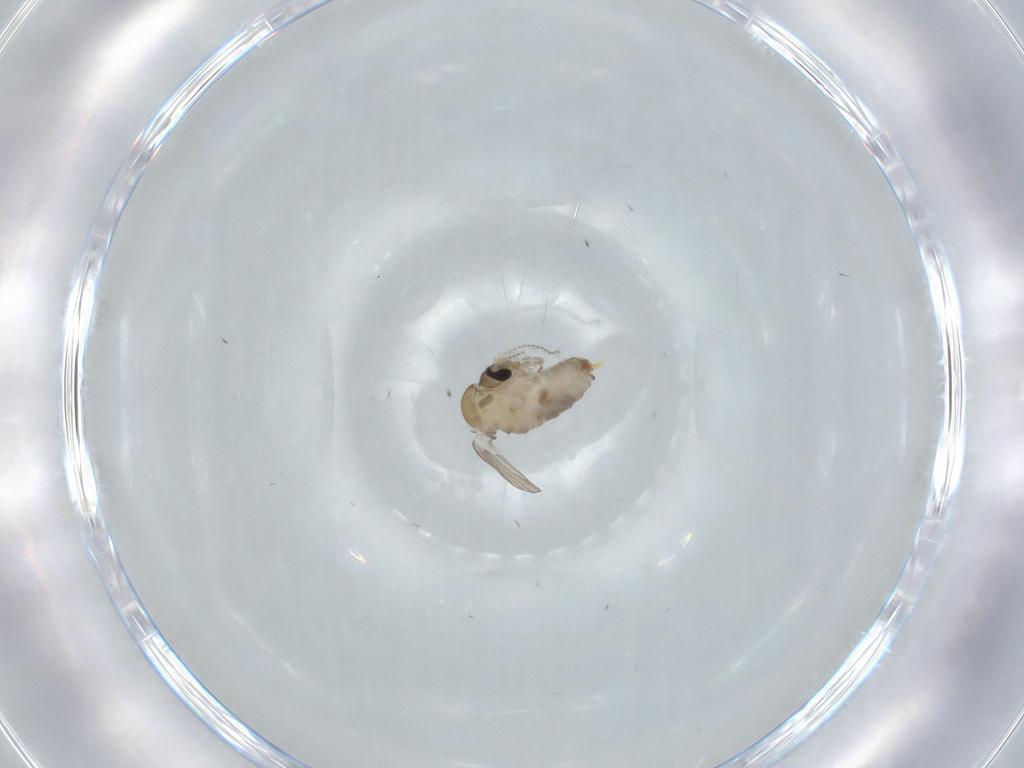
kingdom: Animalia
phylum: Arthropoda
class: Insecta
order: Diptera
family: Psychodidae
